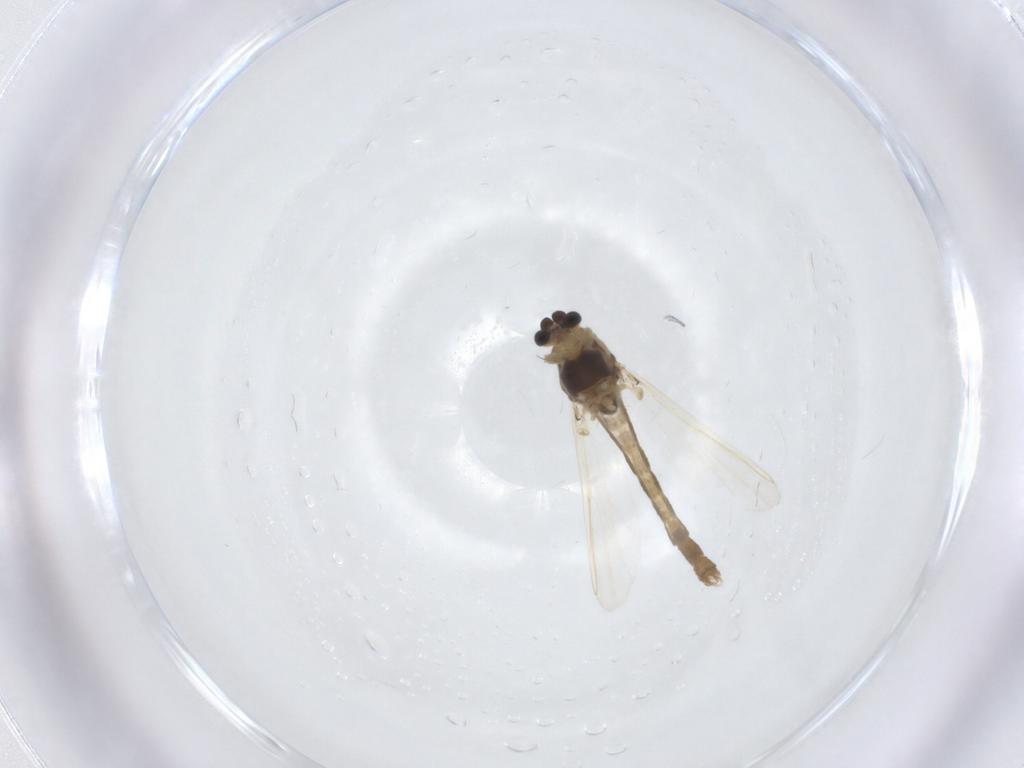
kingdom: Animalia
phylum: Arthropoda
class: Insecta
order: Diptera
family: Chironomidae
